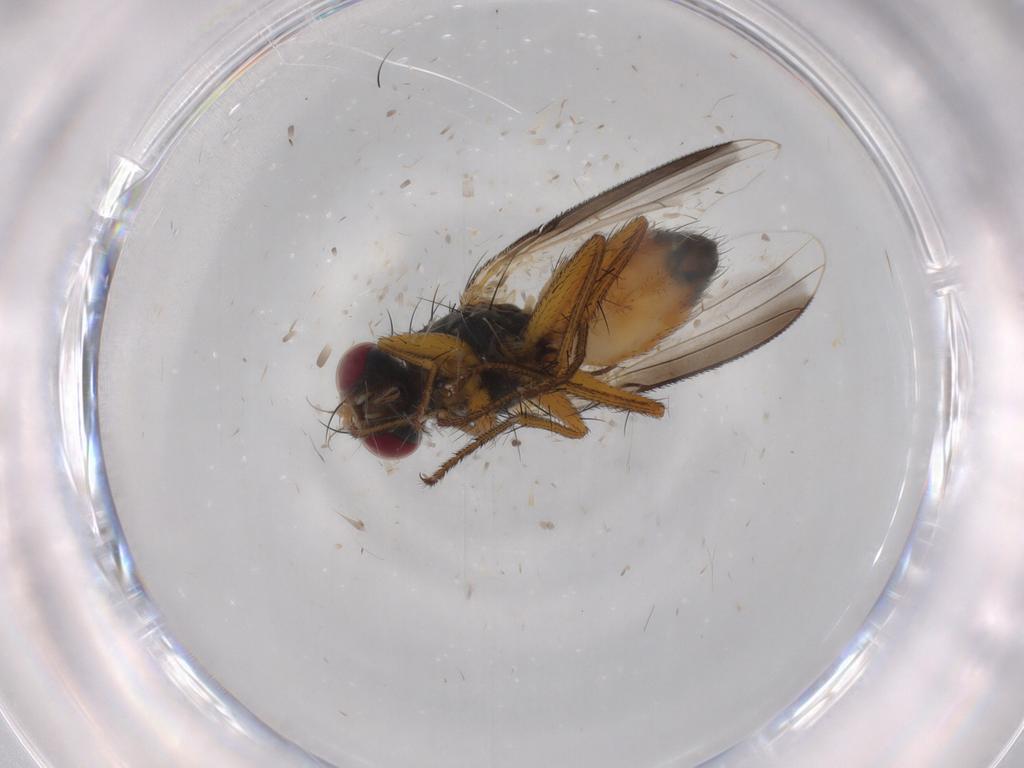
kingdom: Animalia
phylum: Arthropoda
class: Insecta
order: Diptera
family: Muscidae
